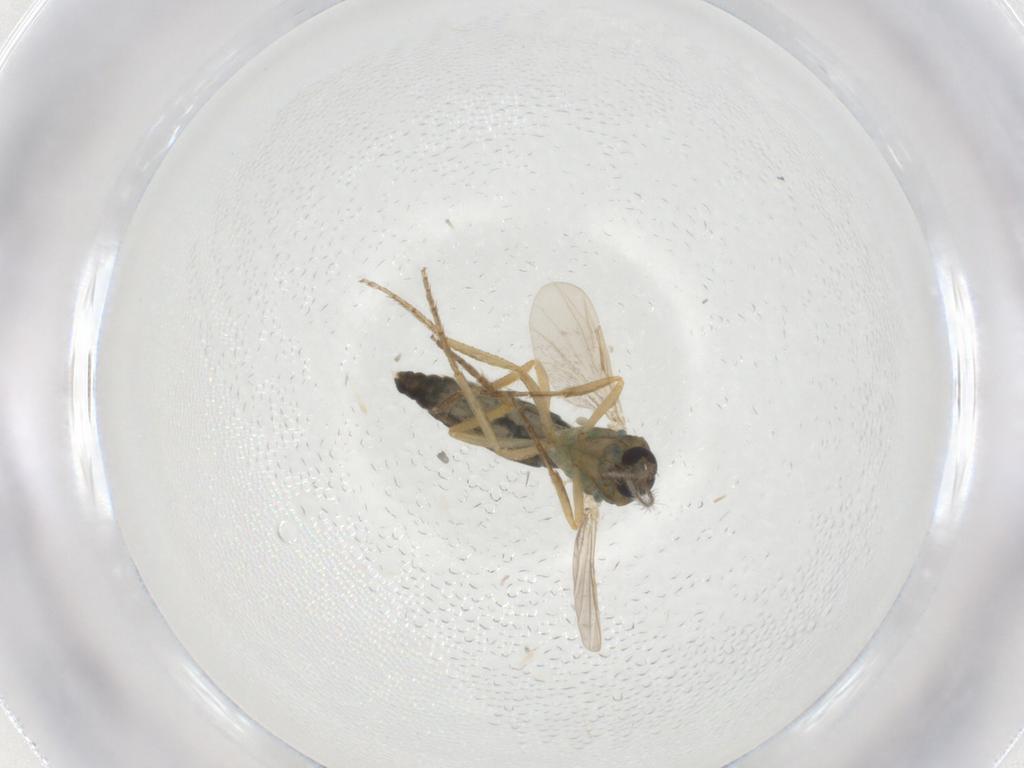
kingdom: Animalia
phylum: Arthropoda
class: Insecta
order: Diptera
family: Ceratopogonidae
